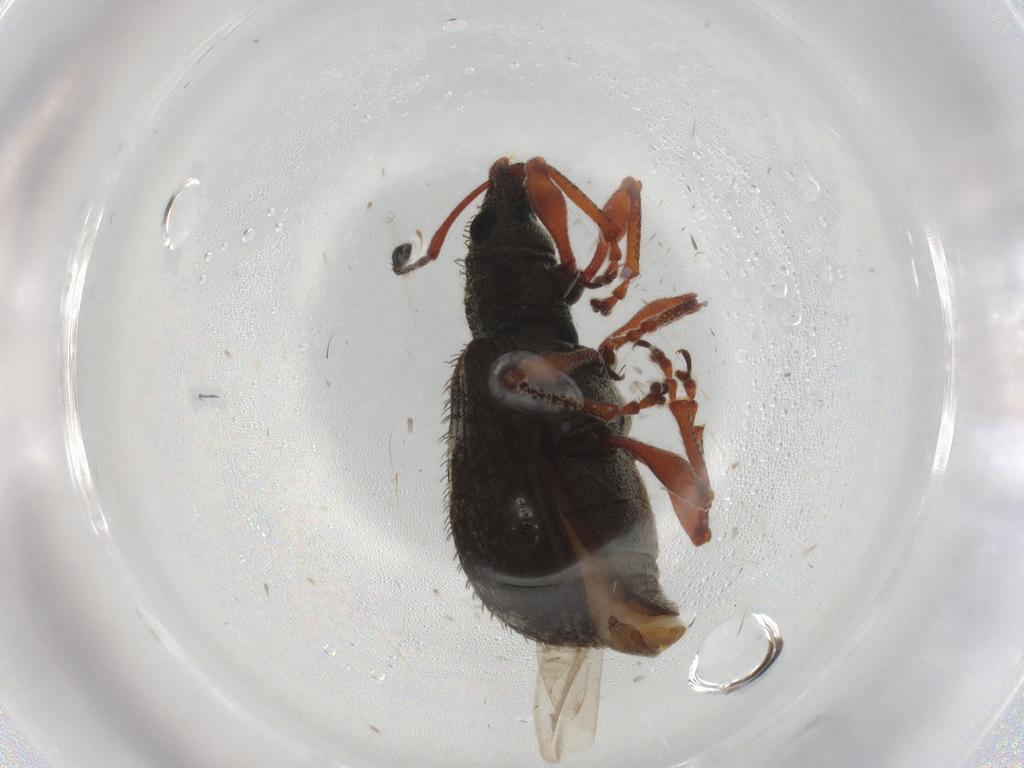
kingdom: Animalia
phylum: Arthropoda
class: Insecta
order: Coleoptera
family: Curculionidae
